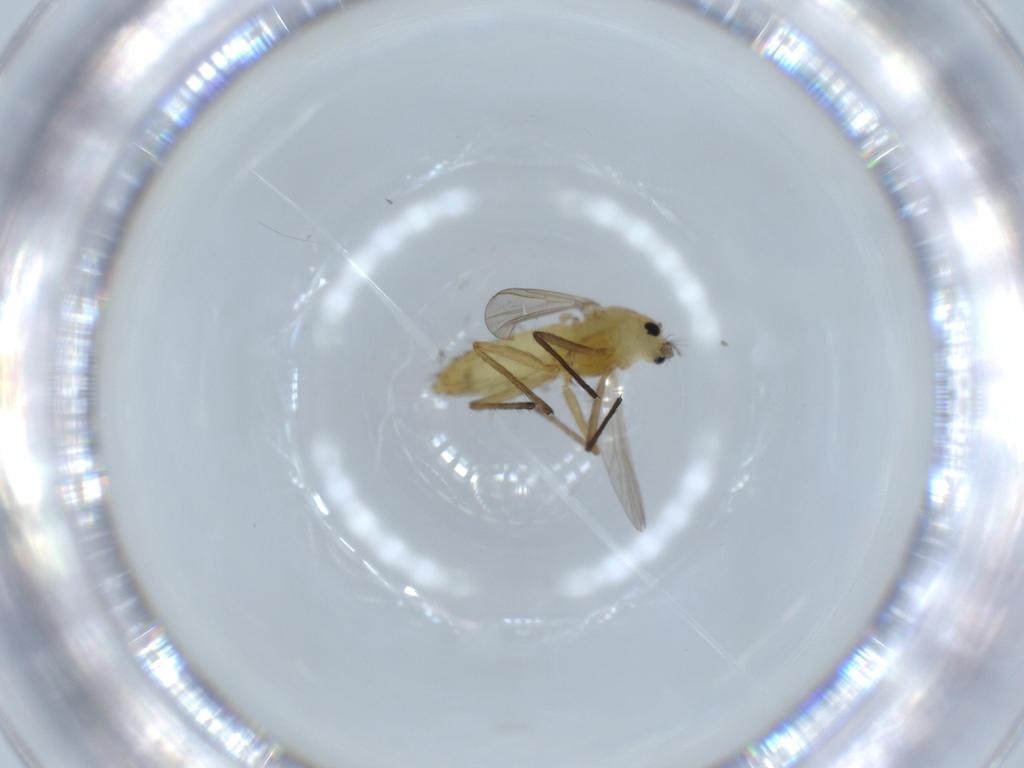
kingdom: Animalia
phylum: Arthropoda
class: Insecta
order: Diptera
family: Chironomidae
